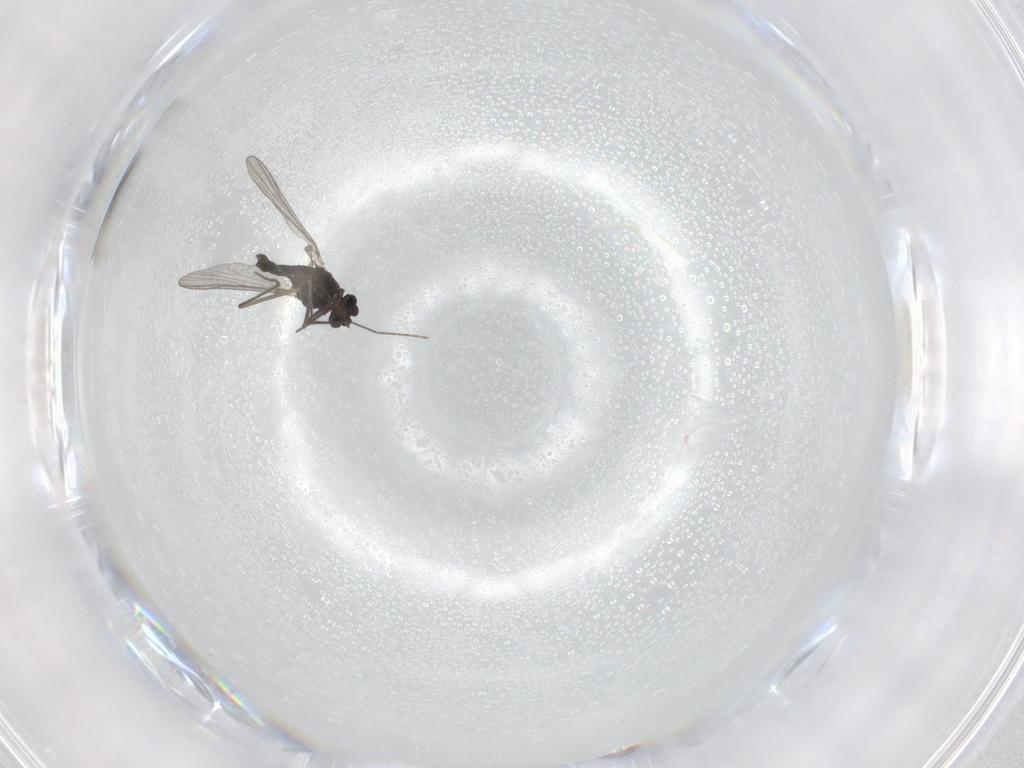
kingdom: Animalia
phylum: Arthropoda
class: Insecta
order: Diptera
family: Chironomidae
